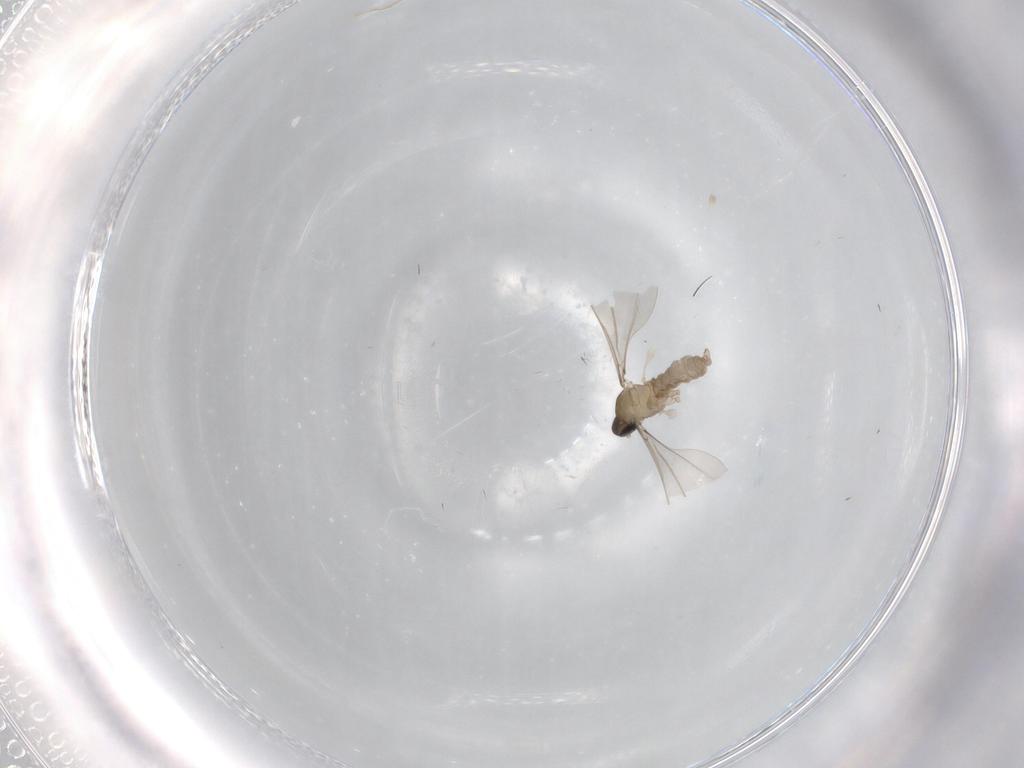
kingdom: Animalia
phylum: Arthropoda
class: Insecta
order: Diptera
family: Cecidomyiidae
